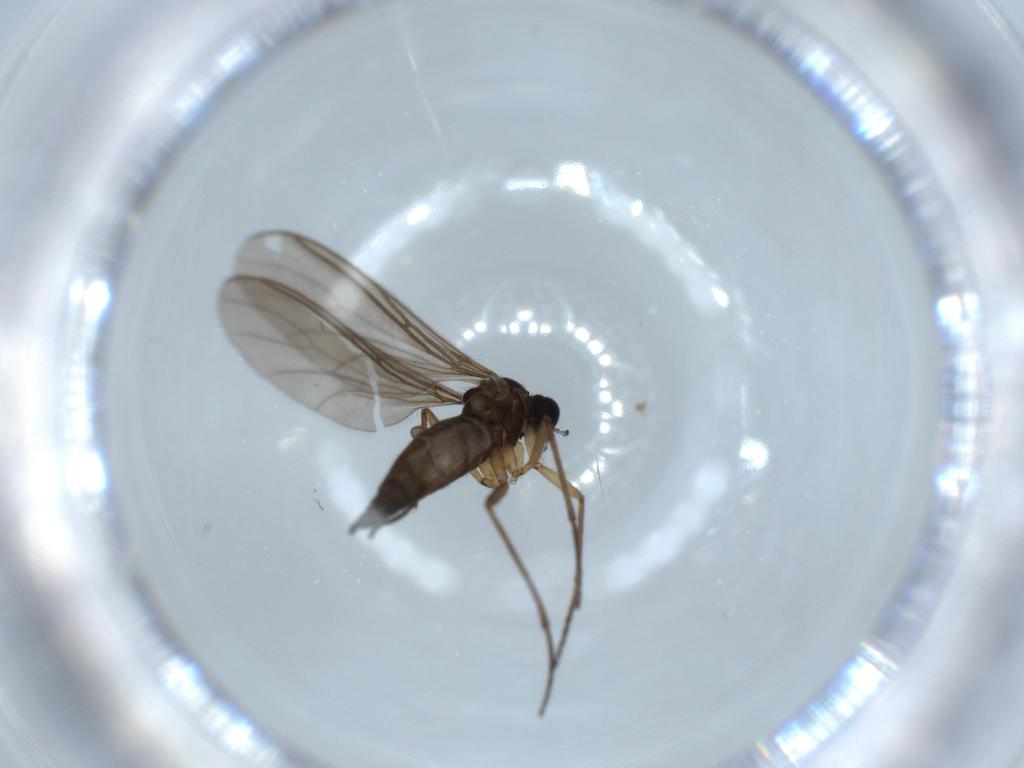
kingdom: Animalia
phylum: Arthropoda
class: Insecta
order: Diptera
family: Sciaridae
